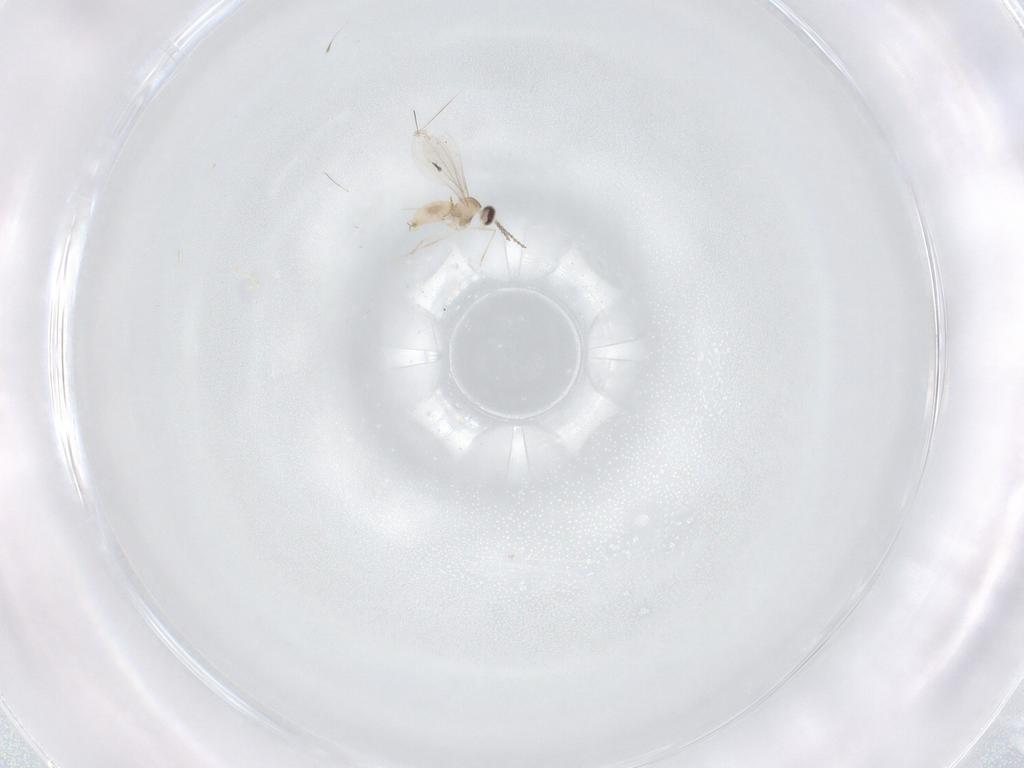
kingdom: Animalia
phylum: Arthropoda
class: Insecta
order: Diptera
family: Keroplatidae
